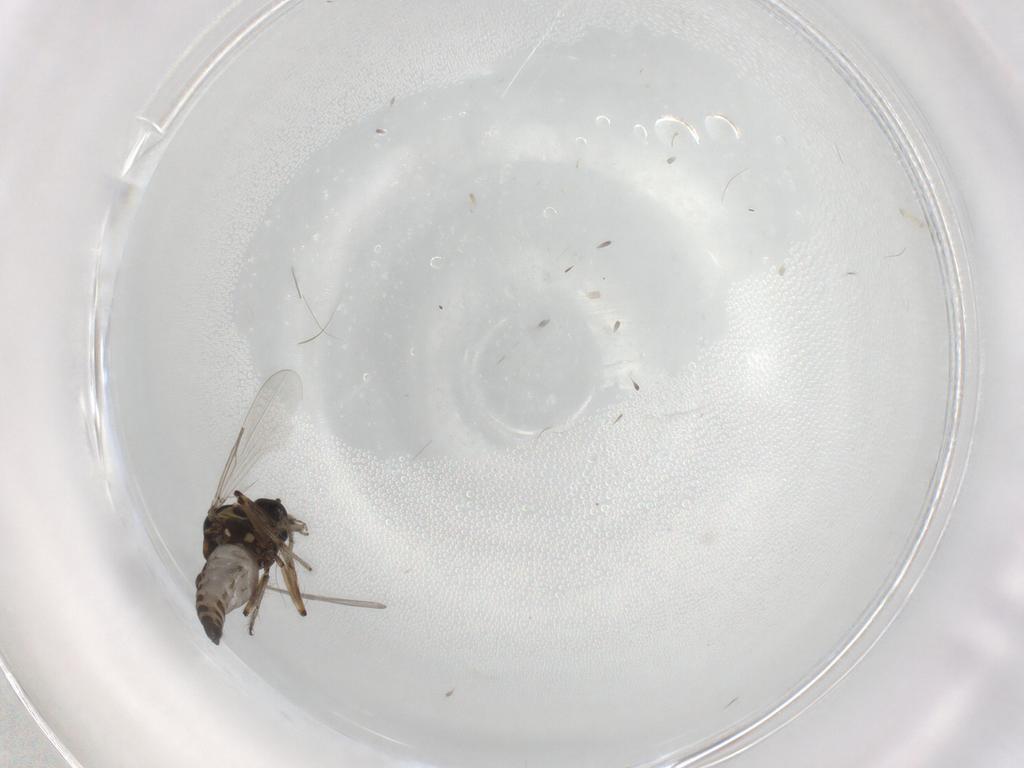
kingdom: Animalia
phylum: Arthropoda
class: Insecta
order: Diptera
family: Ceratopogonidae
